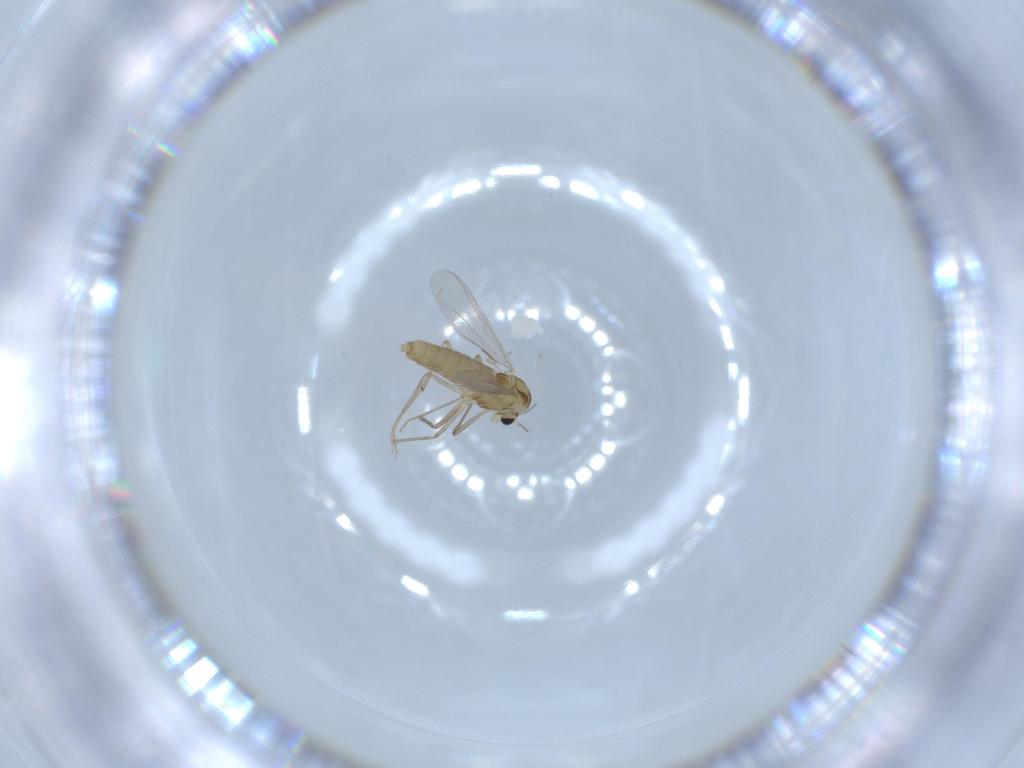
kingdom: Animalia
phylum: Arthropoda
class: Insecta
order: Diptera
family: Chironomidae
